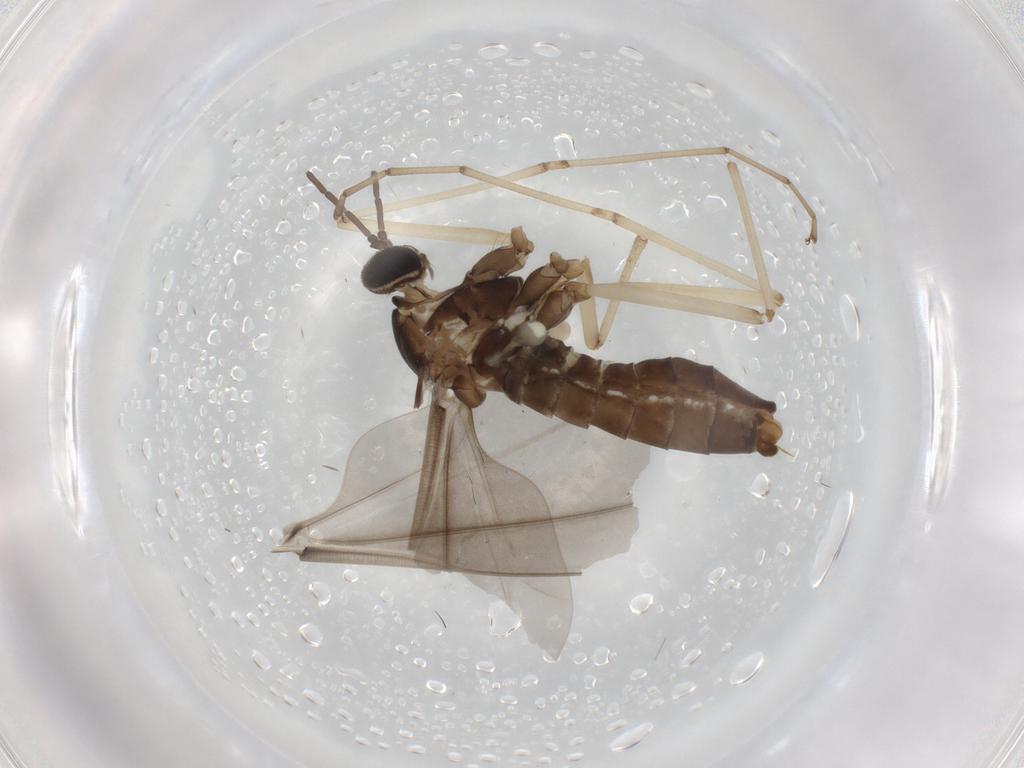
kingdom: Animalia
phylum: Arthropoda
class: Insecta
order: Diptera
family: Cecidomyiidae
